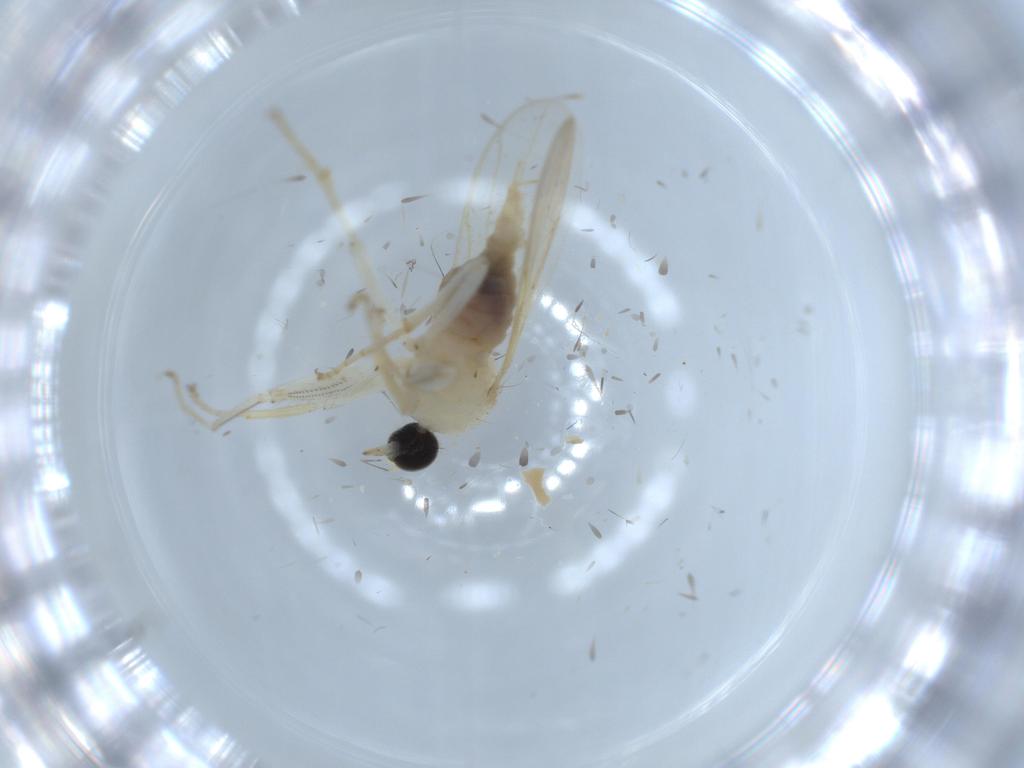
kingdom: Animalia
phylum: Arthropoda
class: Insecta
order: Diptera
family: Hybotidae
